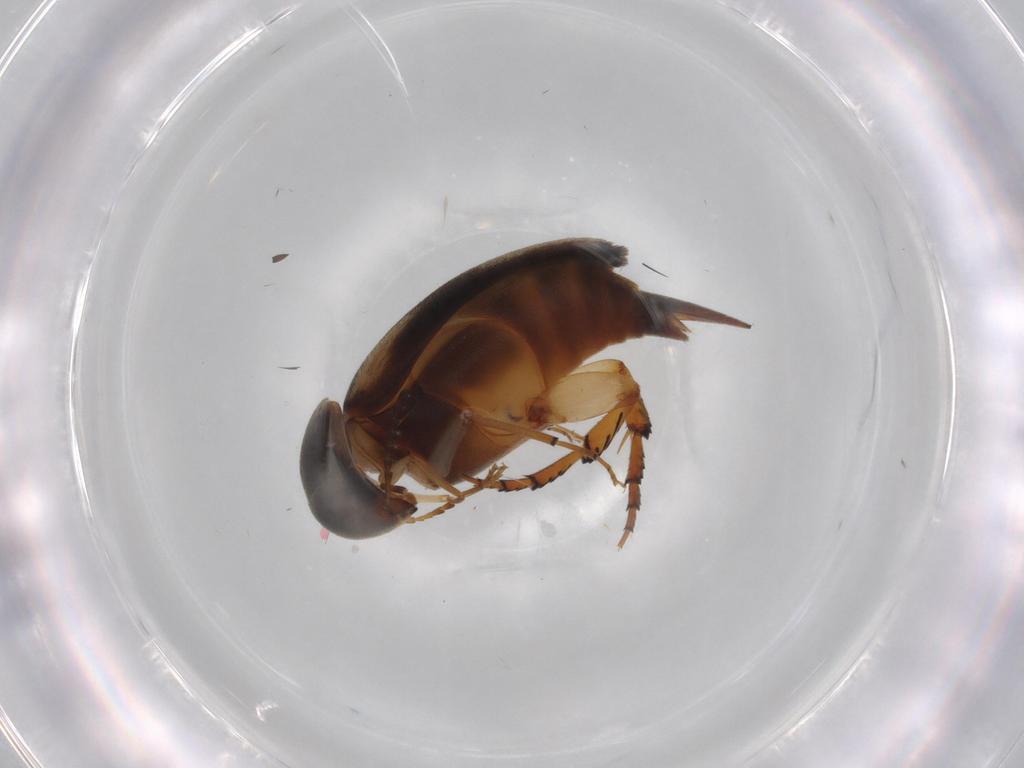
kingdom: Animalia
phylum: Arthropoda
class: Insecta
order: Coleoptera
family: Mordellidae
